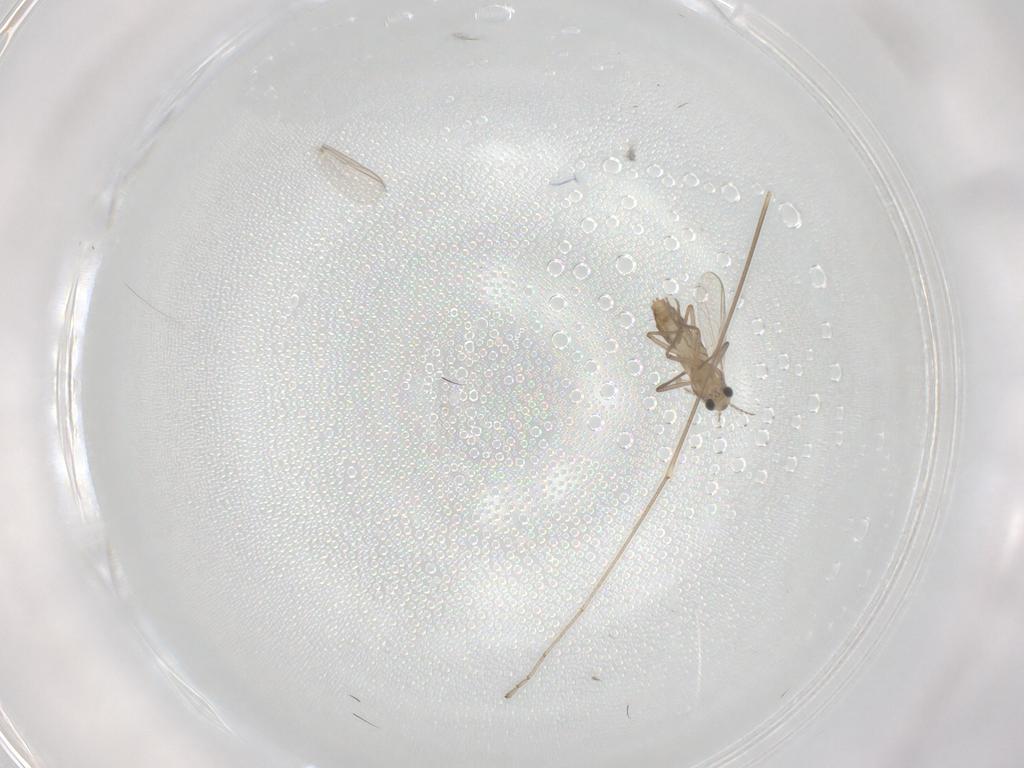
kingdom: Animalia
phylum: Arthropoda
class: Insecta
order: Diptera
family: Chironomidae
